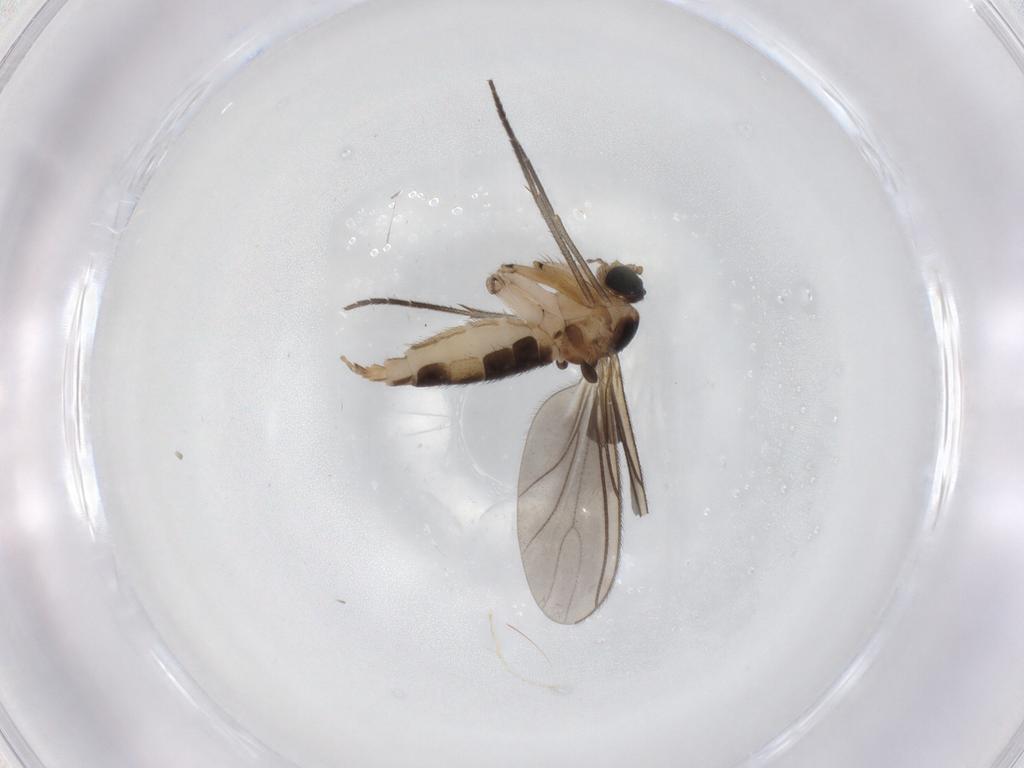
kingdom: Animalia
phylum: Arthropoda
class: Insecta
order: Diptera
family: Sciaridae
